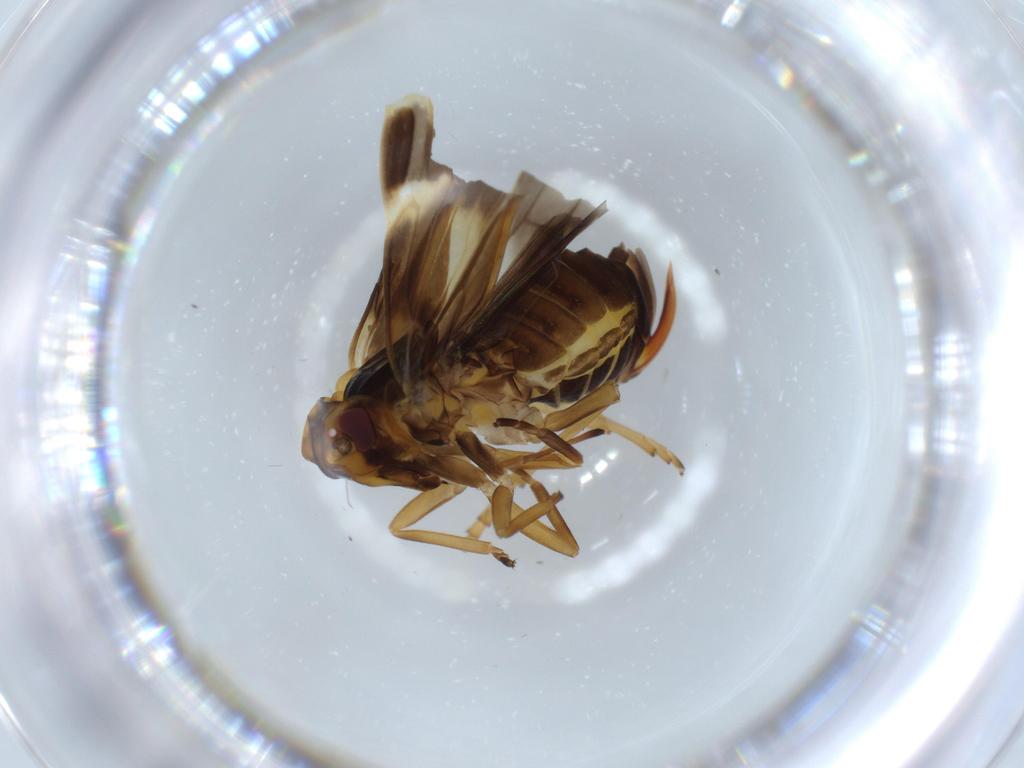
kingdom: Animalia
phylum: Arthropoda
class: Insecta
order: Hemiptera
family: Cixiidae
